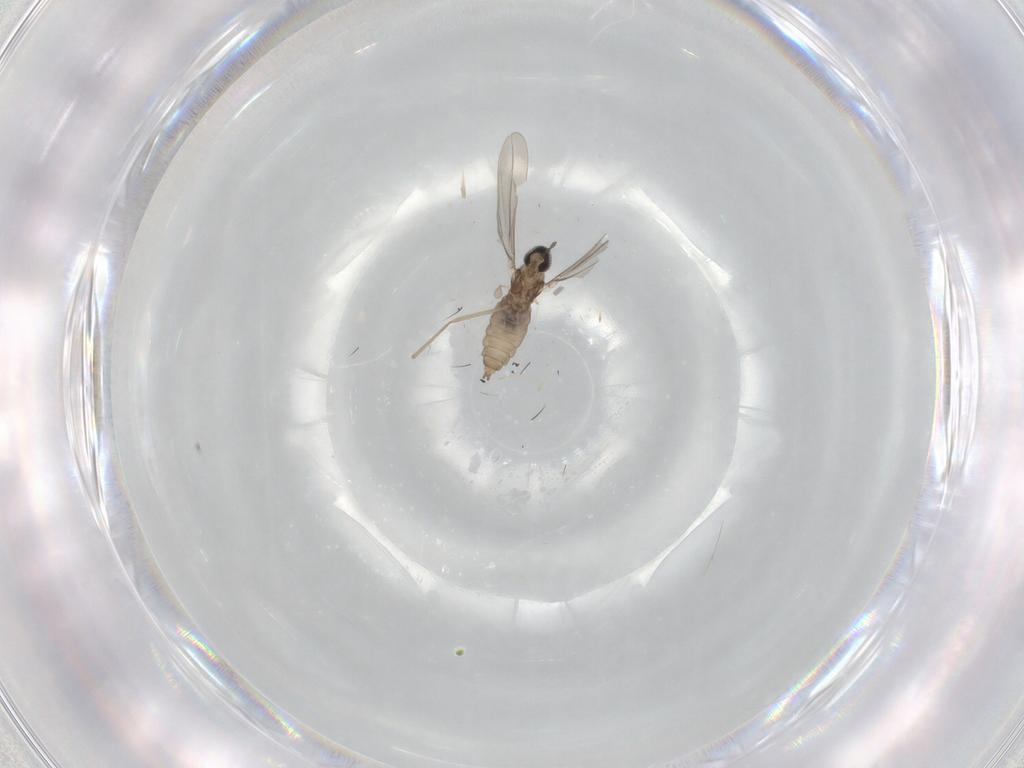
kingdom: Animalia
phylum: Arthropoda
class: Insecta
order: Diptera
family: Cecidomyiidae
